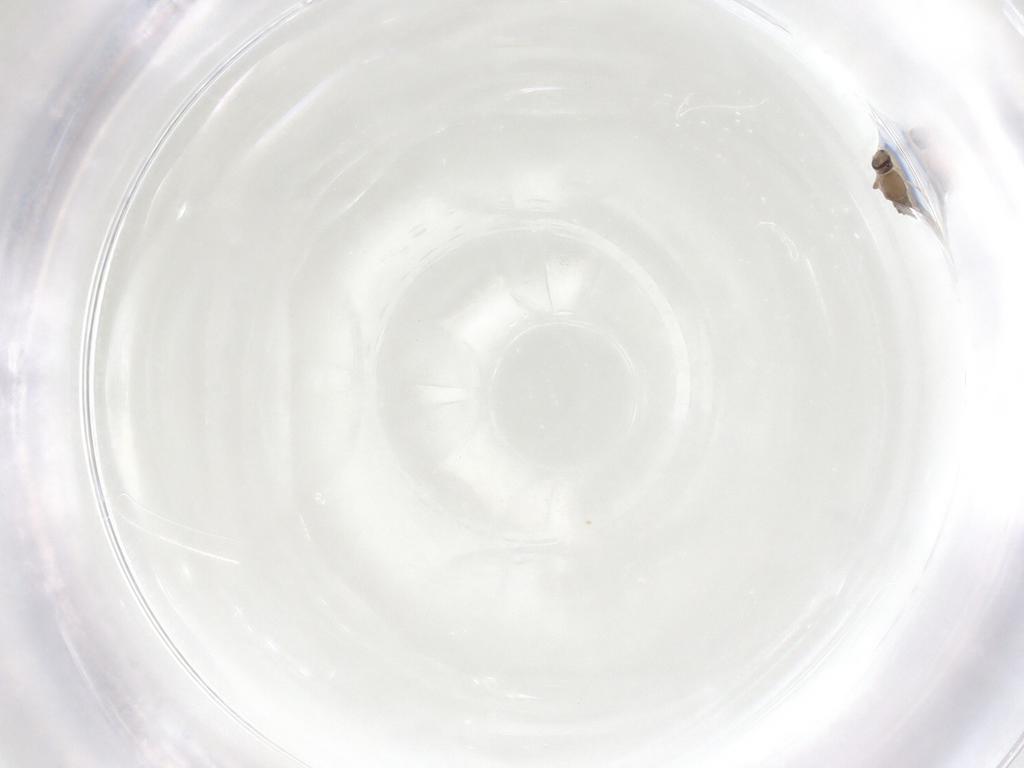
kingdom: Animalia
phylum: Arthropoda
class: Insecta
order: Diptera
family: Cecidomyiidae
